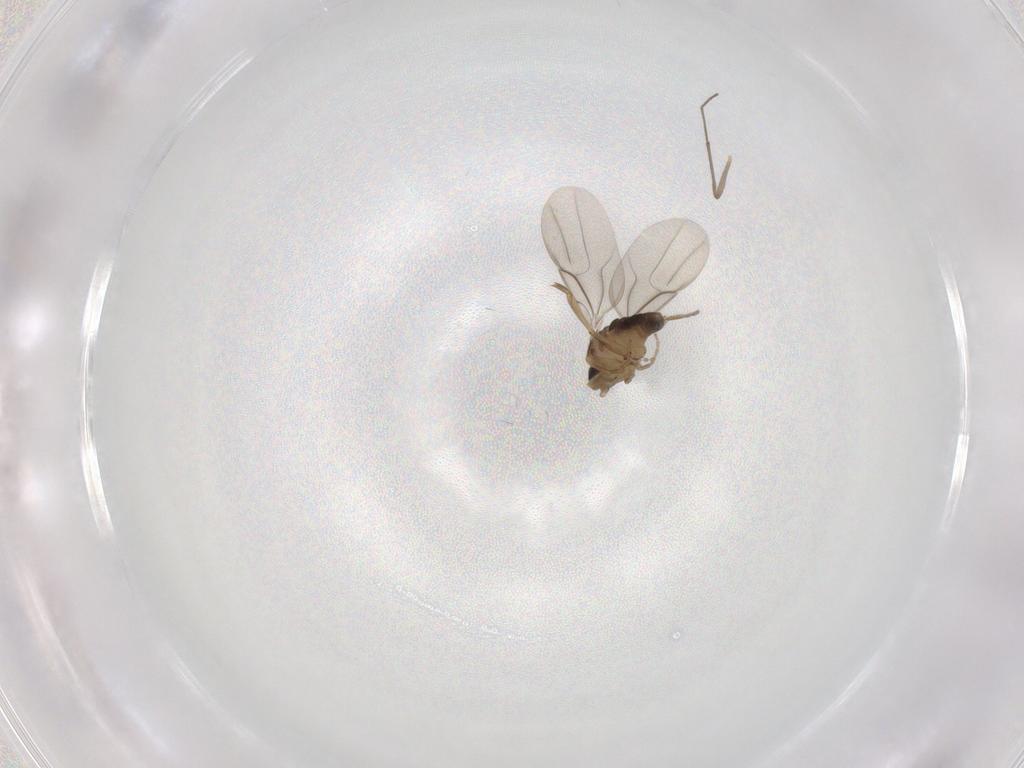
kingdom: Animalia
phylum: Arthropoda
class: Insecta
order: Diptera
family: Phoridae
